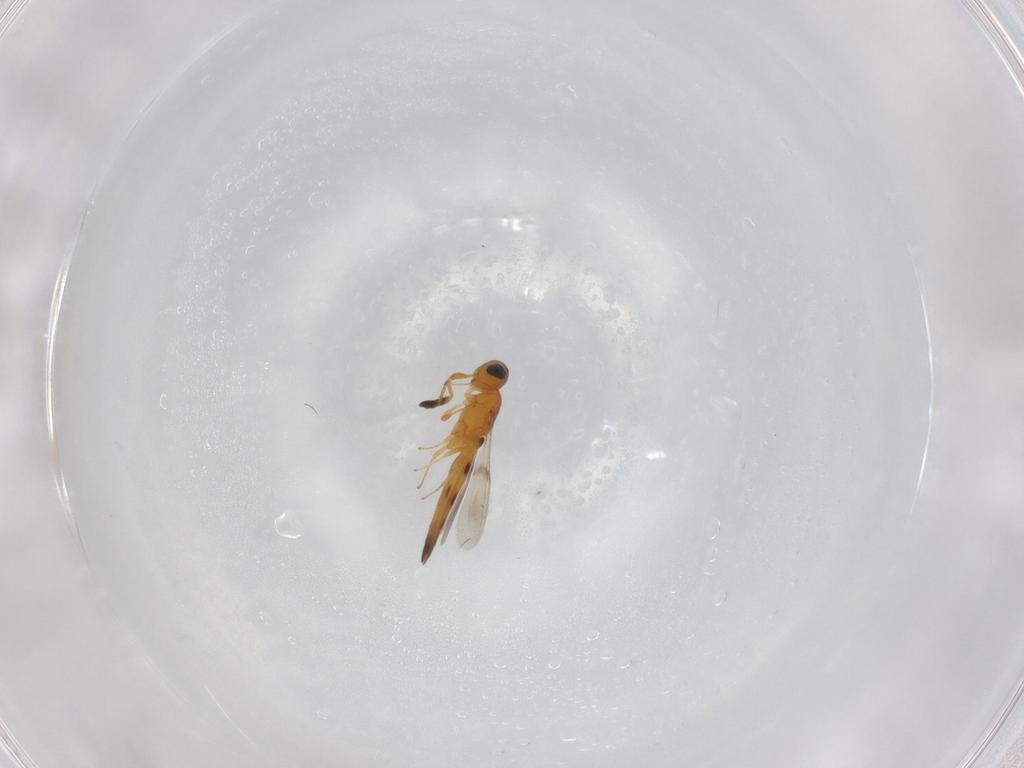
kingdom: Animalia
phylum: Arthropoda
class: Insecta
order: Hymenoptera
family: Scelionidae
